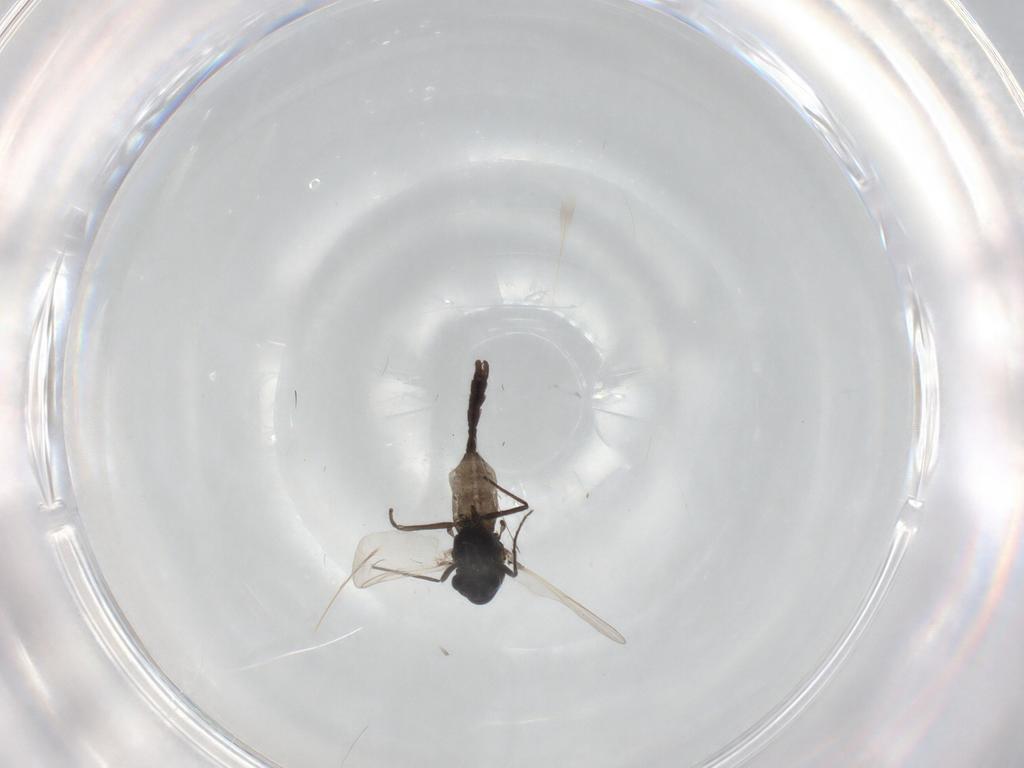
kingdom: Animalia
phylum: Arthropoda
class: Insecta
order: Diptera
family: Chironomidae
